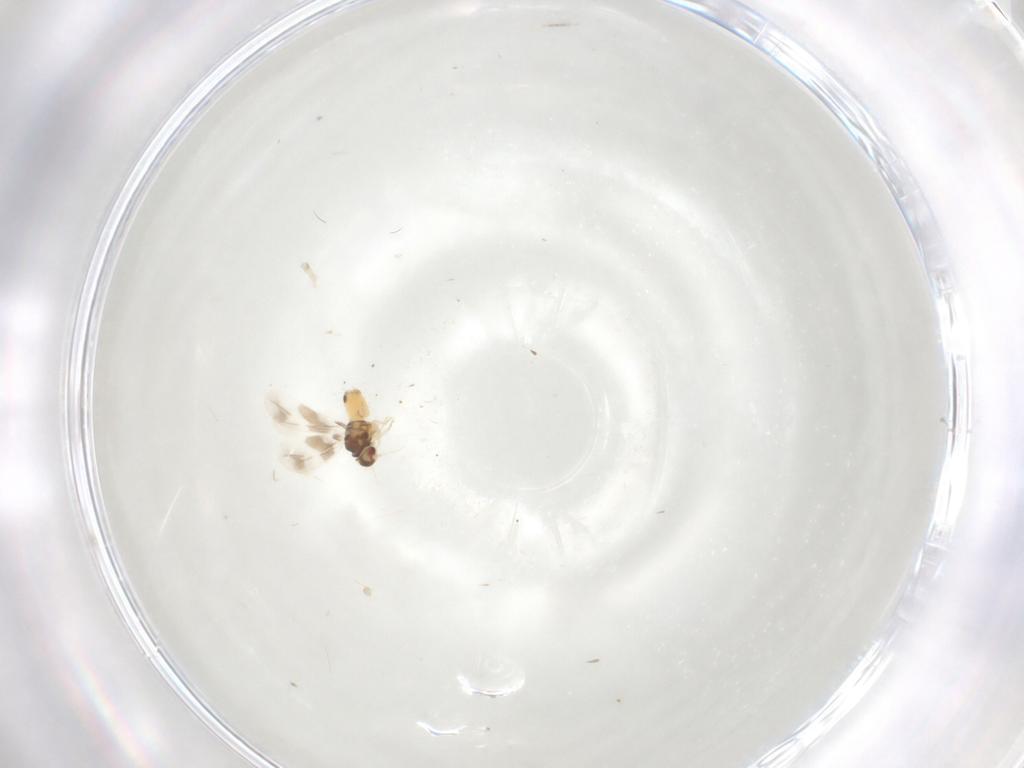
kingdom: Animalia
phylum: Arthropoda
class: Insecta
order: Hemiptera
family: Aleyrodidae
